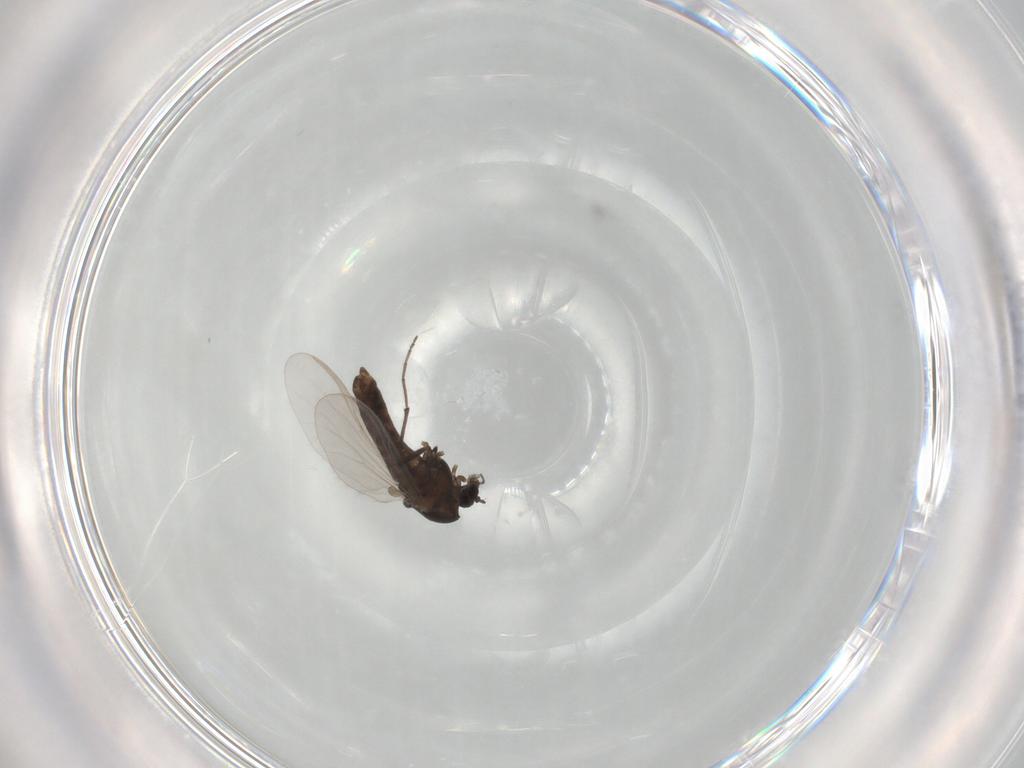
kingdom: Animalia
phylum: Arthropoda
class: Insecta
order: Diptera
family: Chironomidae
